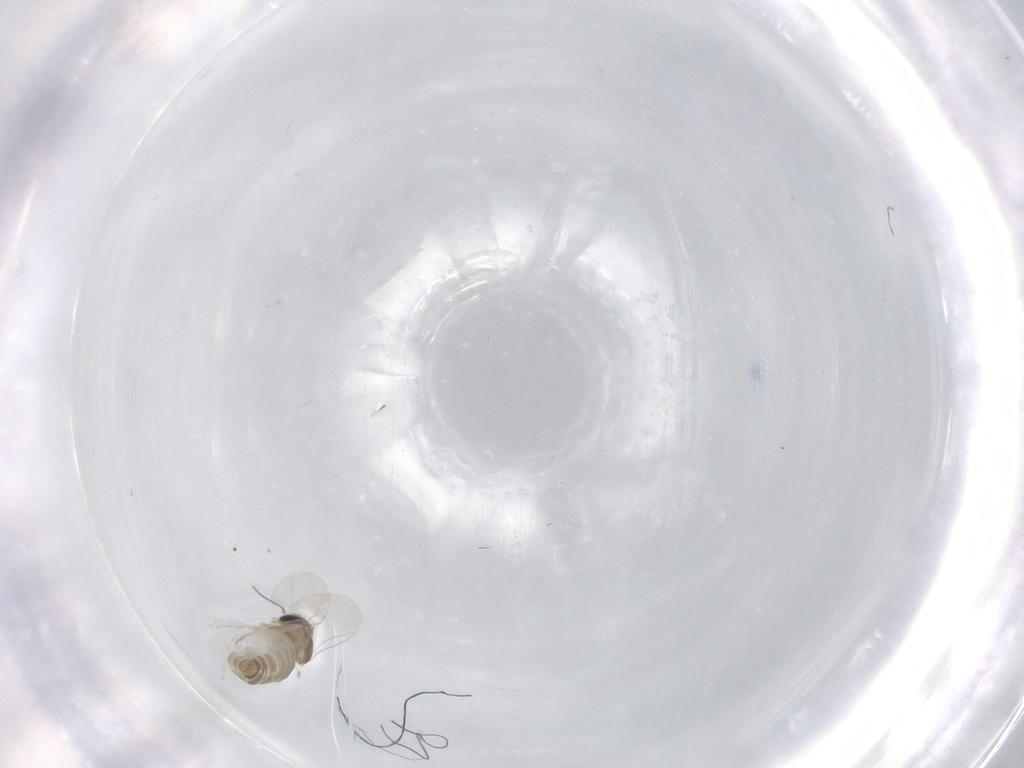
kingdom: Animalia
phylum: Arthropoda
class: Insecta
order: Diptera
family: Cecidomyiidae
